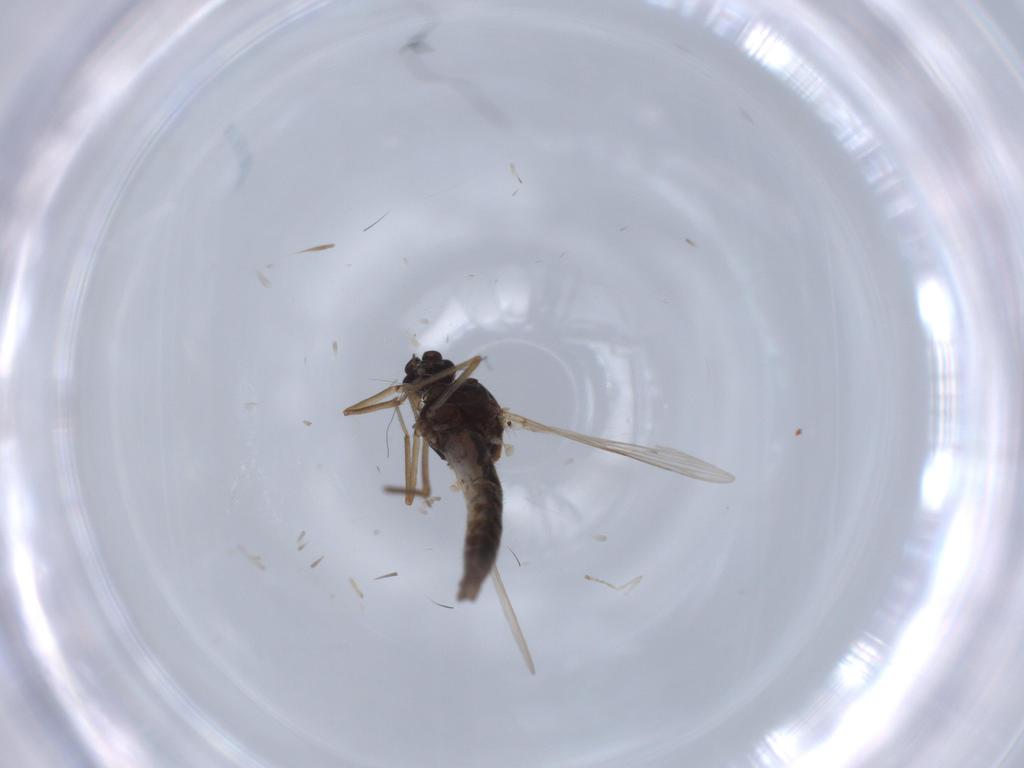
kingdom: Animalia
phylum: Arthropoda
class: Insecta
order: Diptera
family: Ceratopogonidae
